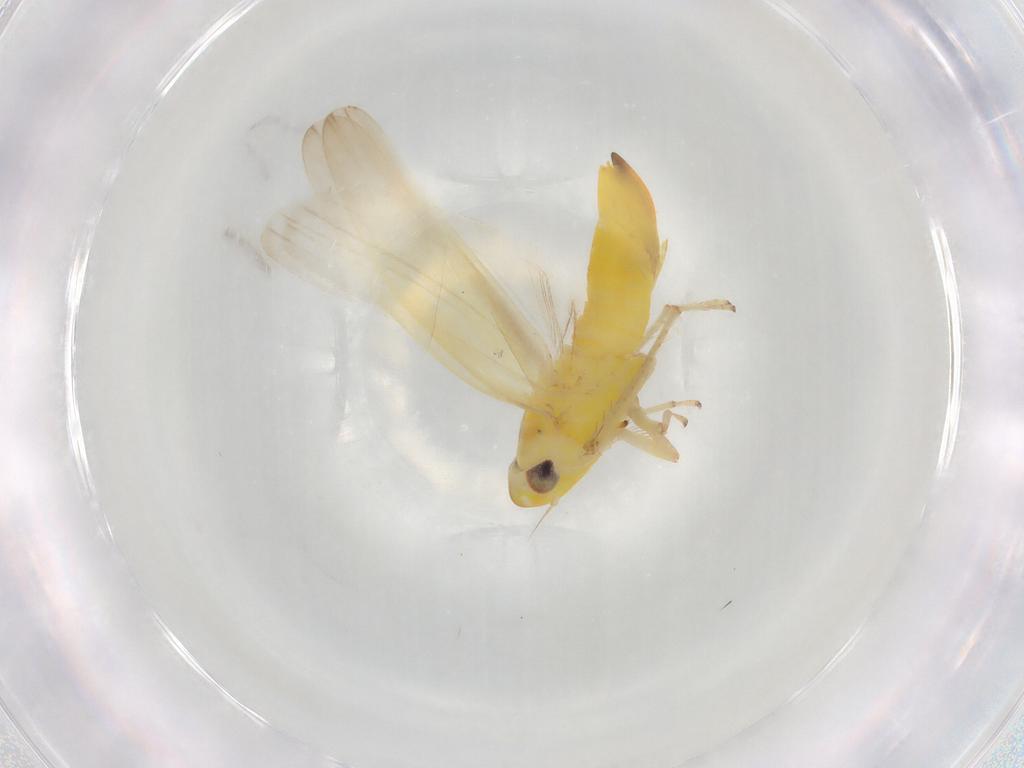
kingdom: Animalia
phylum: Arthropoda
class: Insecta
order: Hemiptera
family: Cicadellidae
